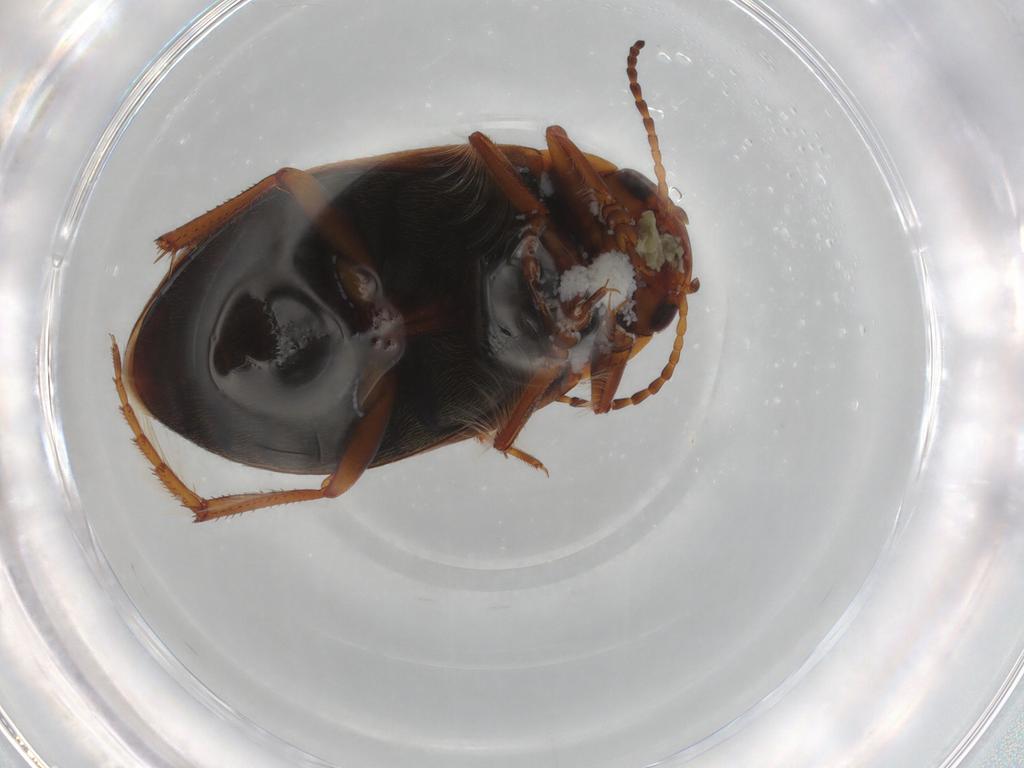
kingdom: Animalia
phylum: Arthropoda
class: Insecta
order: Coleoptera
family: Dytiscidae
